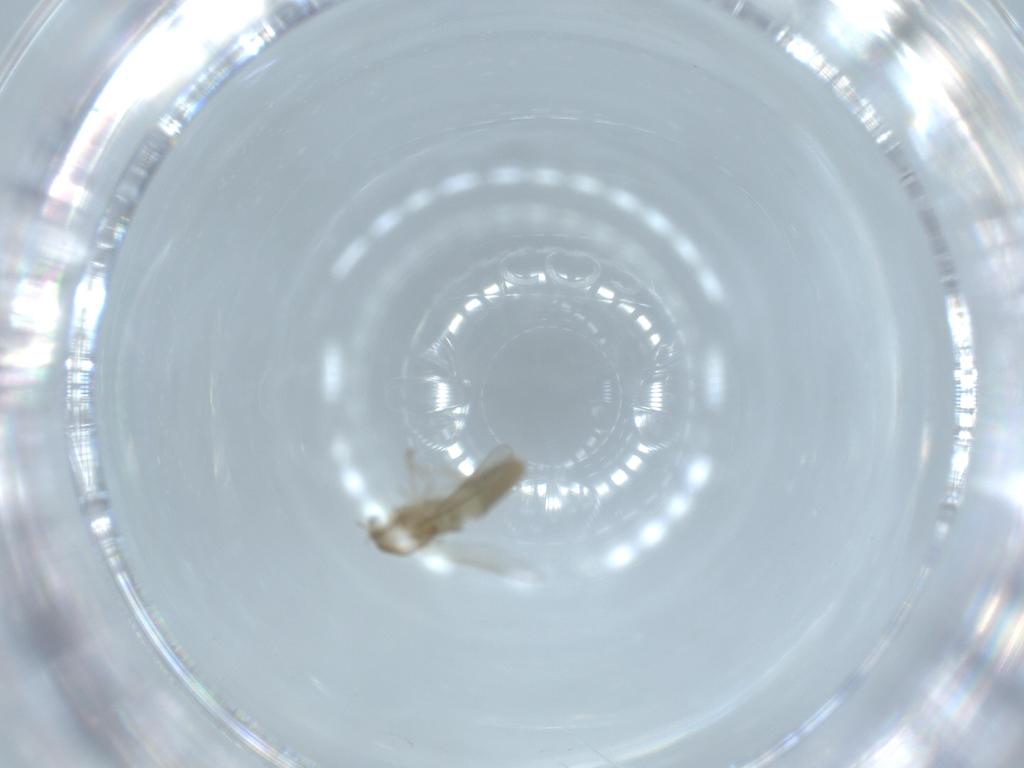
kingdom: Animalia
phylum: Arthropoda
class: Insecta
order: Diptera
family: Chironomidae
